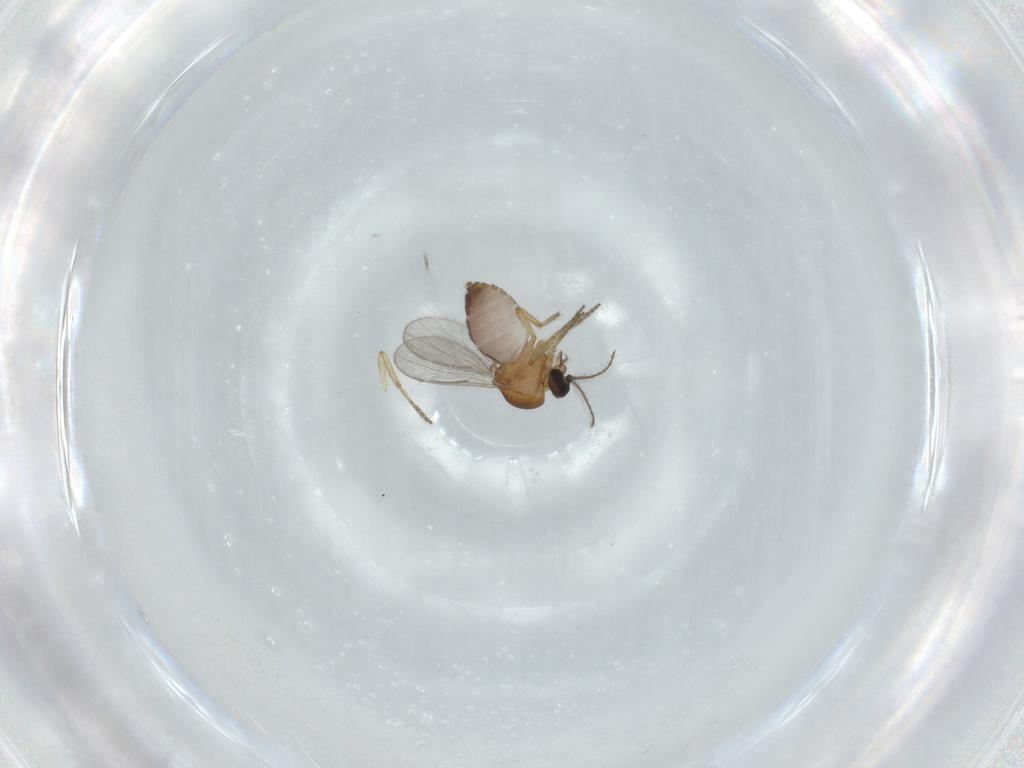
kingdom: Animalia
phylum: Arthropoda
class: Insecta
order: Diptera
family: Ceratopogonidae
